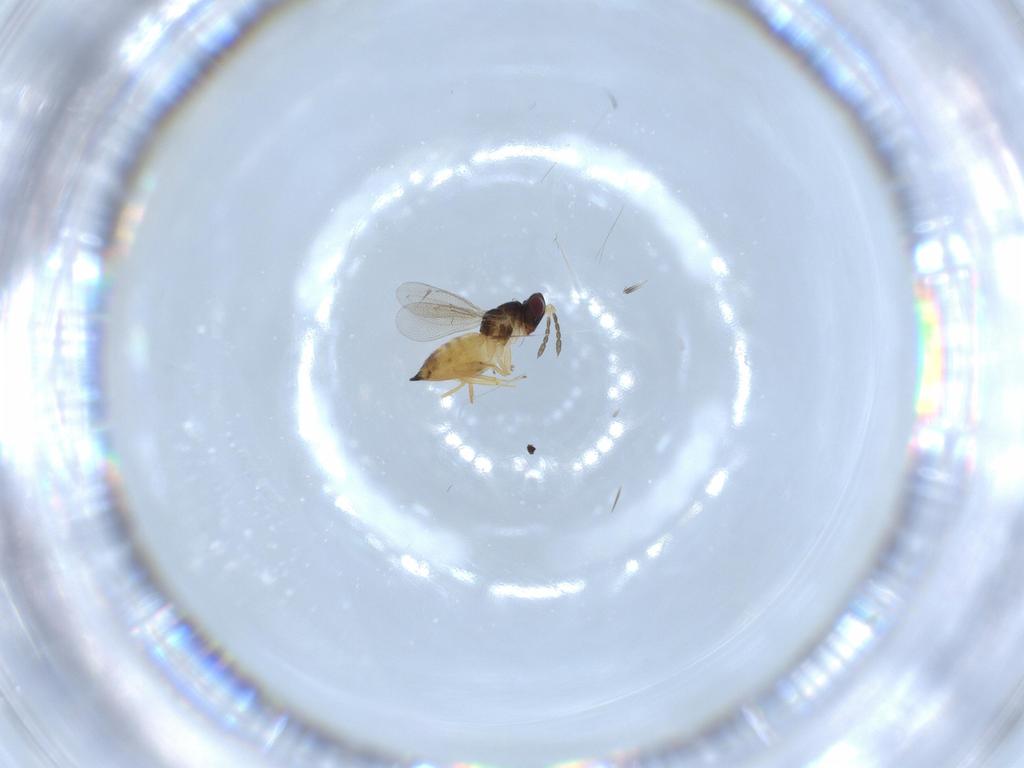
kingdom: Animalia
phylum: Arthropoda
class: Insecta
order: Hymenoptera
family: Eulophidae
